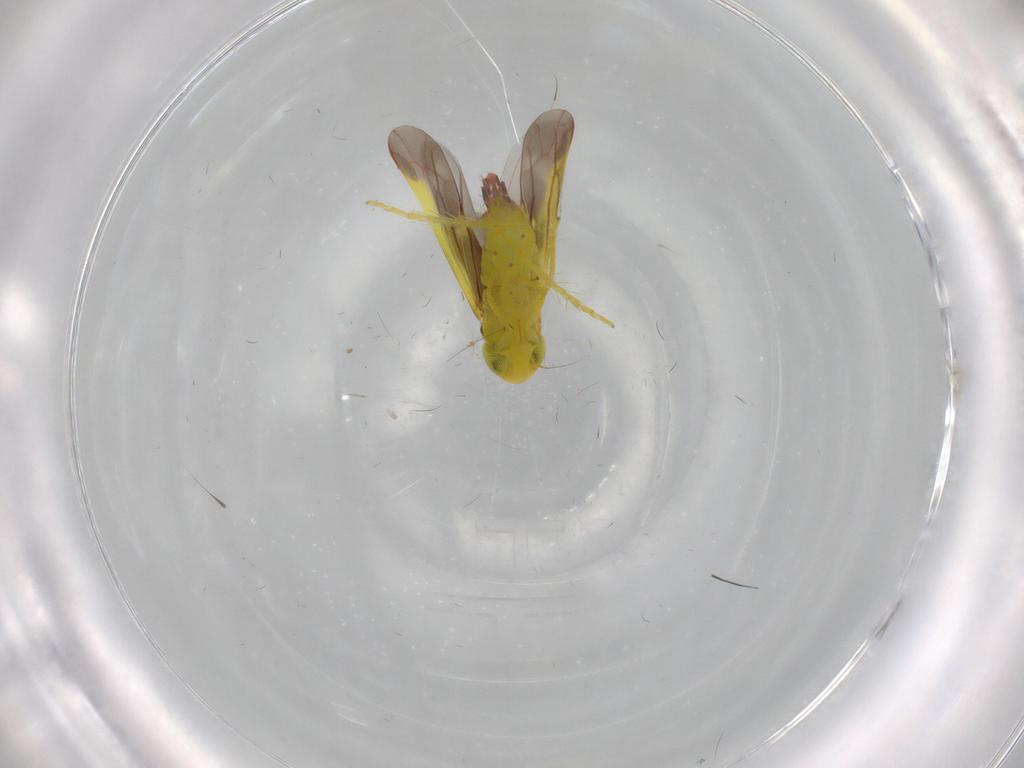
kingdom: Animalia
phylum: Arthropoda
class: Insecta
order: Hemiptera
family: Cicadellidae
